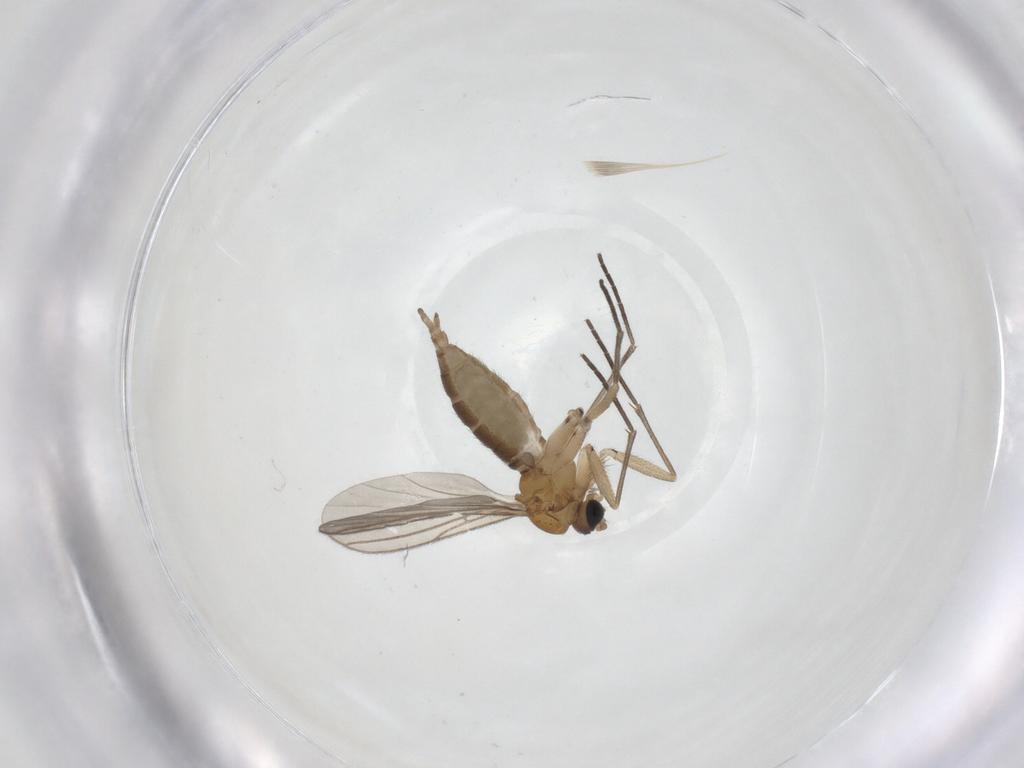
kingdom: Animalia
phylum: Arthropoda
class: Insecta
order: Diptera
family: Sciaridae
